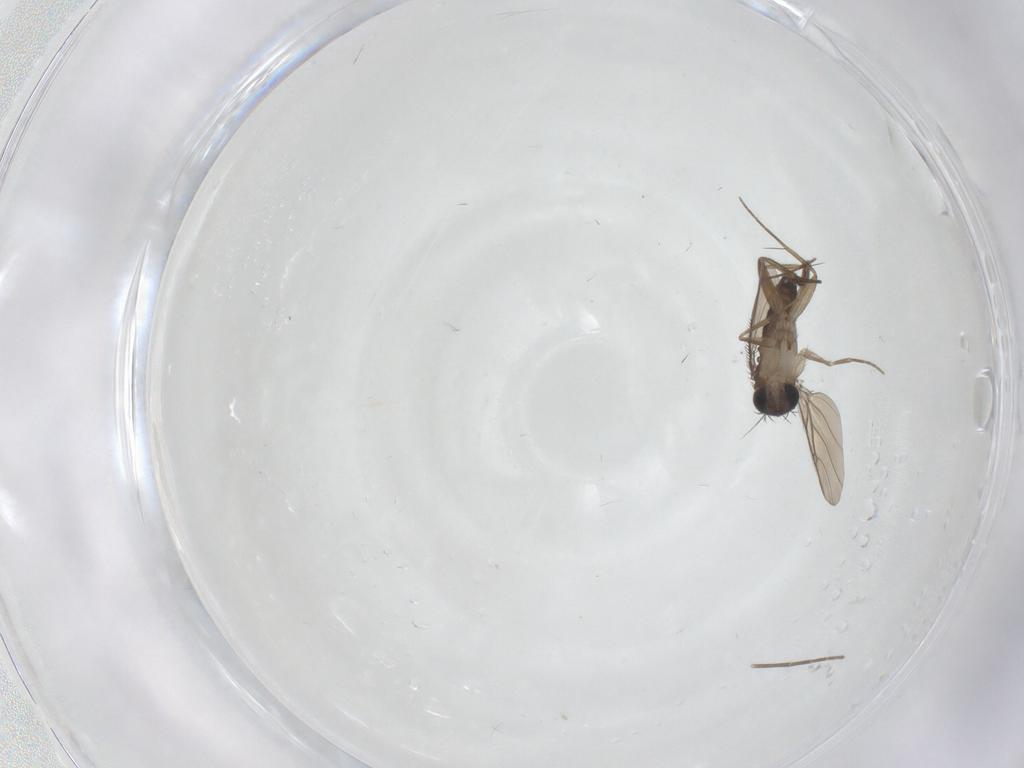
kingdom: Animalia
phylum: Arthropoda
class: Insecta
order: Diptera
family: Phoridae
